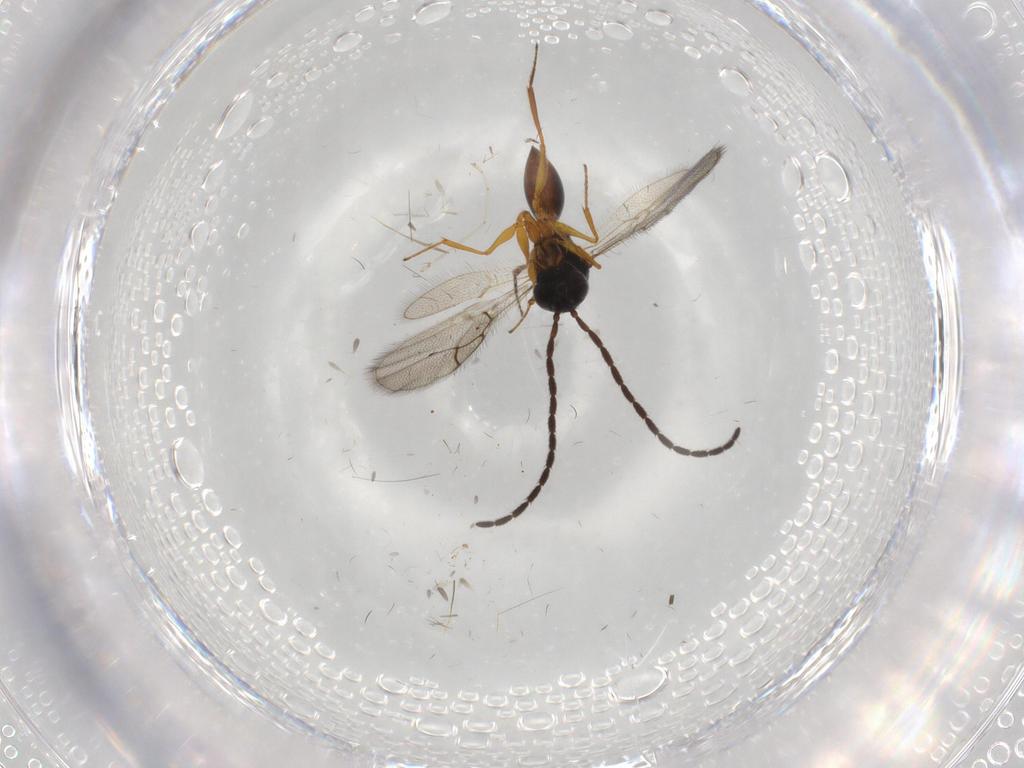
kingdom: Animalia
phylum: Arthropoda
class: Insecta
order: Hymenoptera
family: Figitidae
